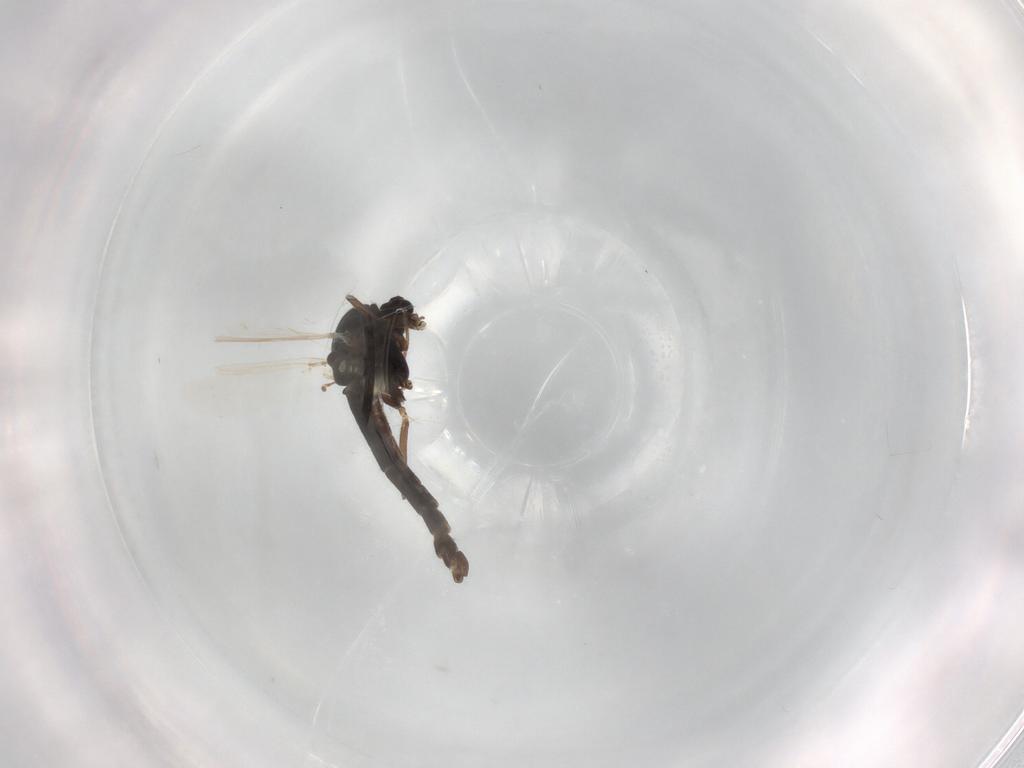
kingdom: Animalia
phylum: Arthropoda
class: Insecta
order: Diptera
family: Chironomidae
